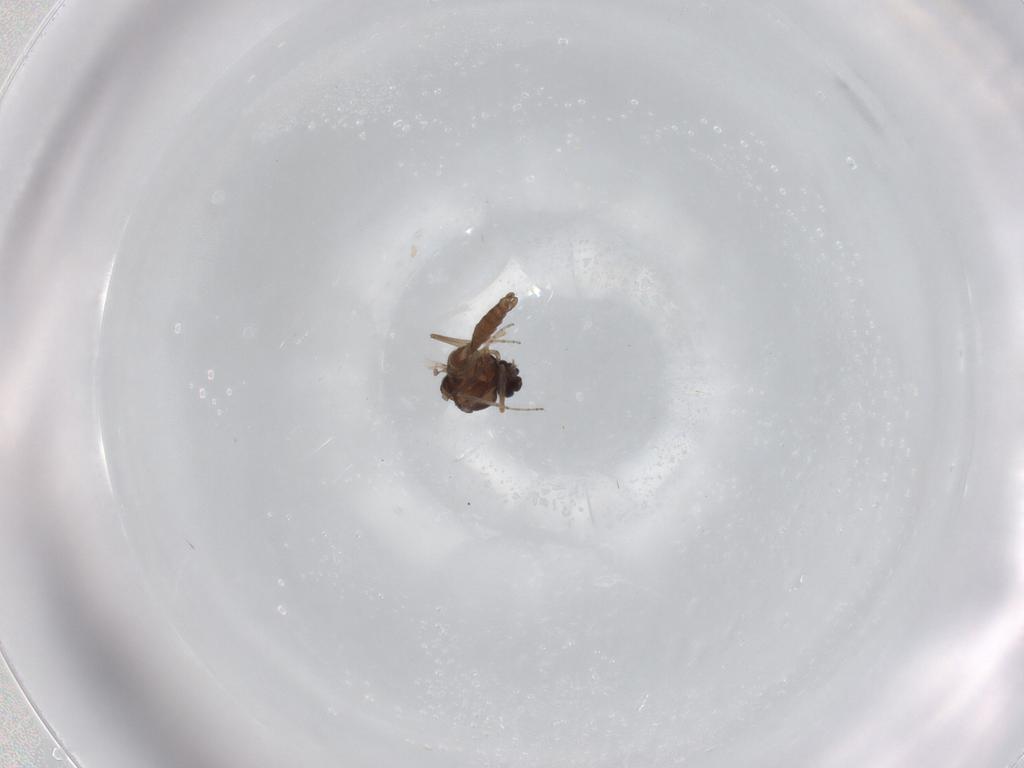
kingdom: Animalia
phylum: Arthropoda
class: Insecta
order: Diptera
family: Ceratopogonidae
